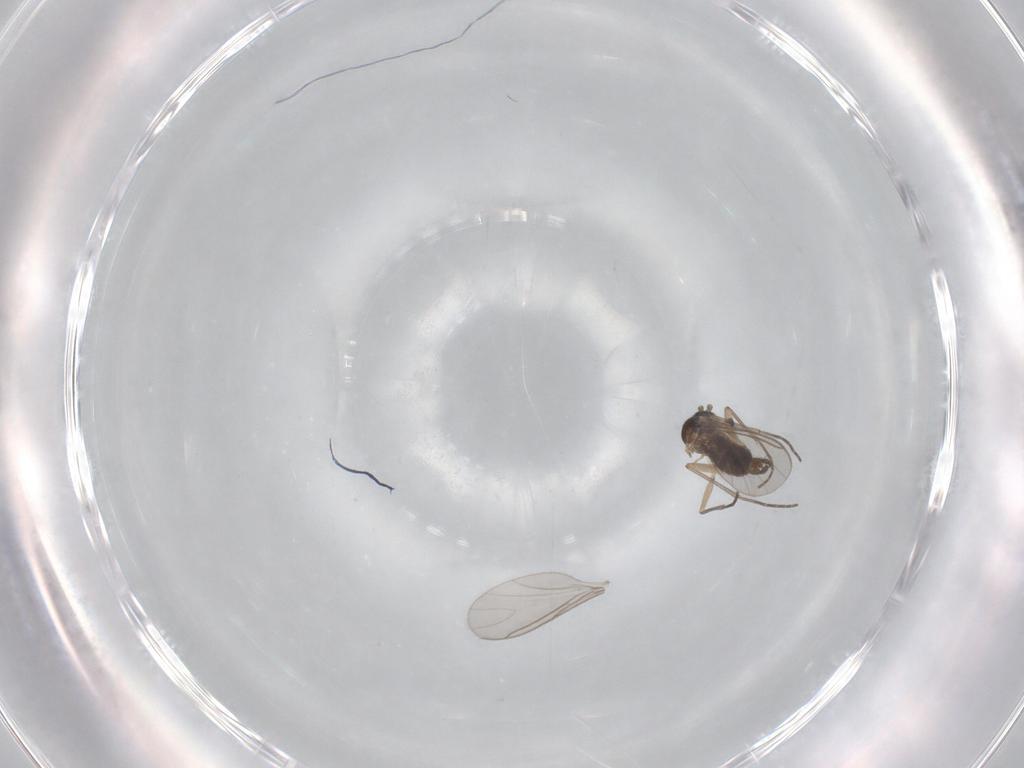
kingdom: Animalia
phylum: Arthropoda
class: Insecta
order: Diptera
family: Sciaridae
